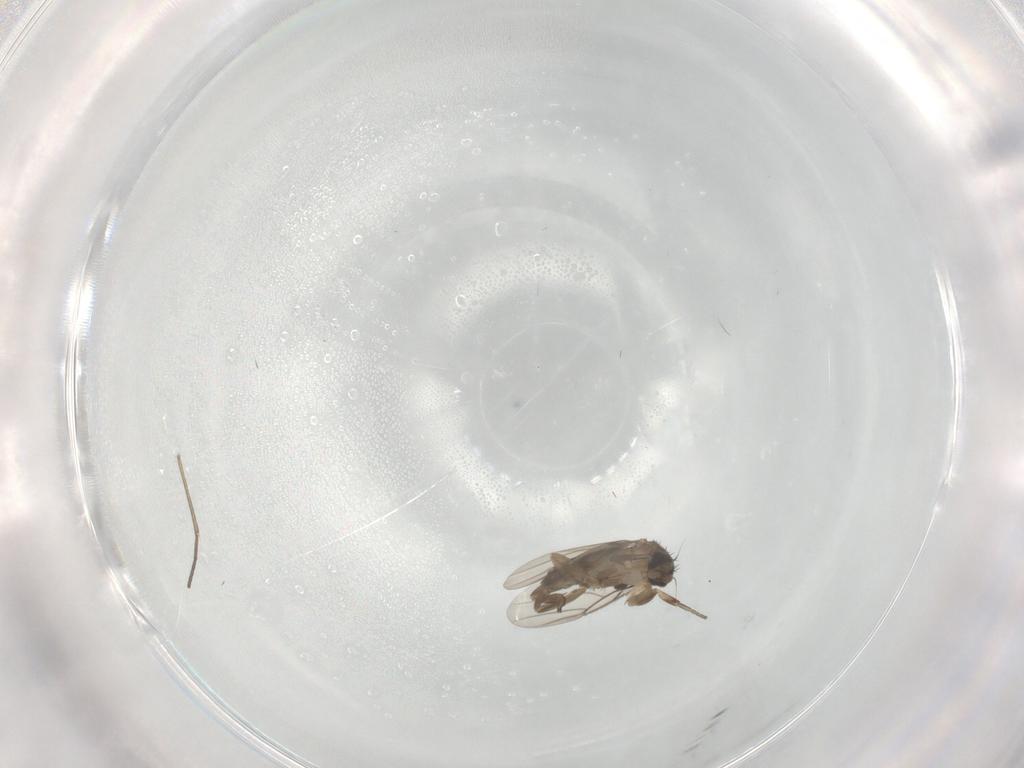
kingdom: Animalia
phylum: Arthropoda
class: Insecta
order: Diptera
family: Phoridae
